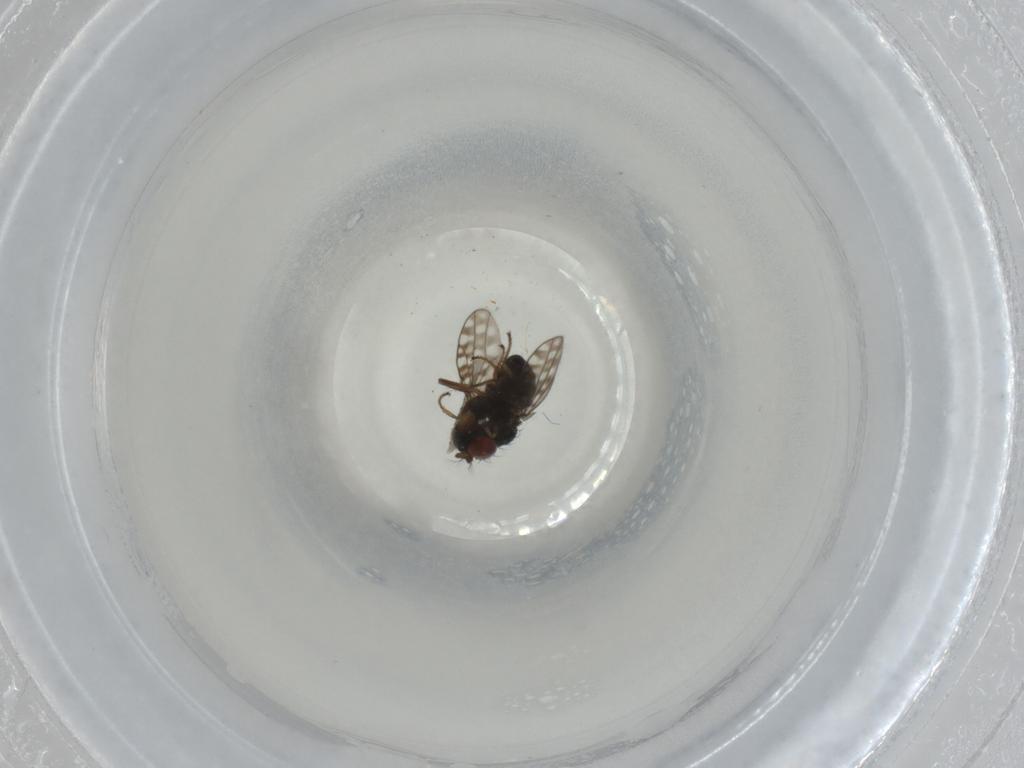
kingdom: Animalia
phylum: Arthropoda
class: Insecta
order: Diptera
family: Ephydridae
